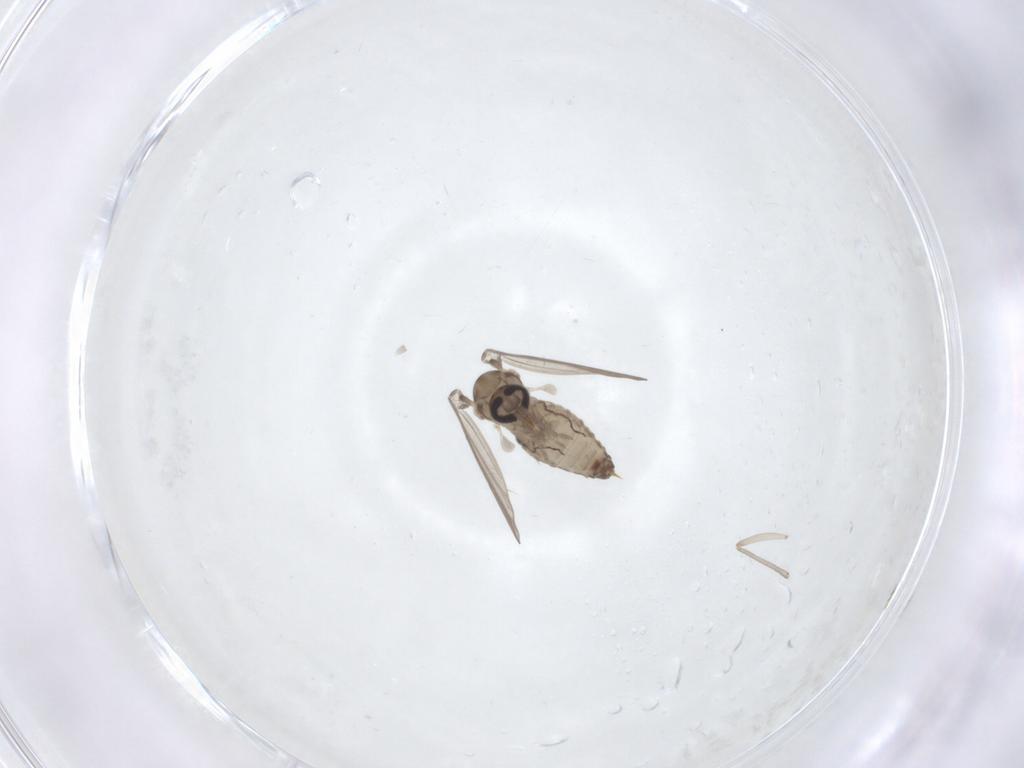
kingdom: Animalia
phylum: Arthropoda
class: Insecta
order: Diptera
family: Psychodidae
